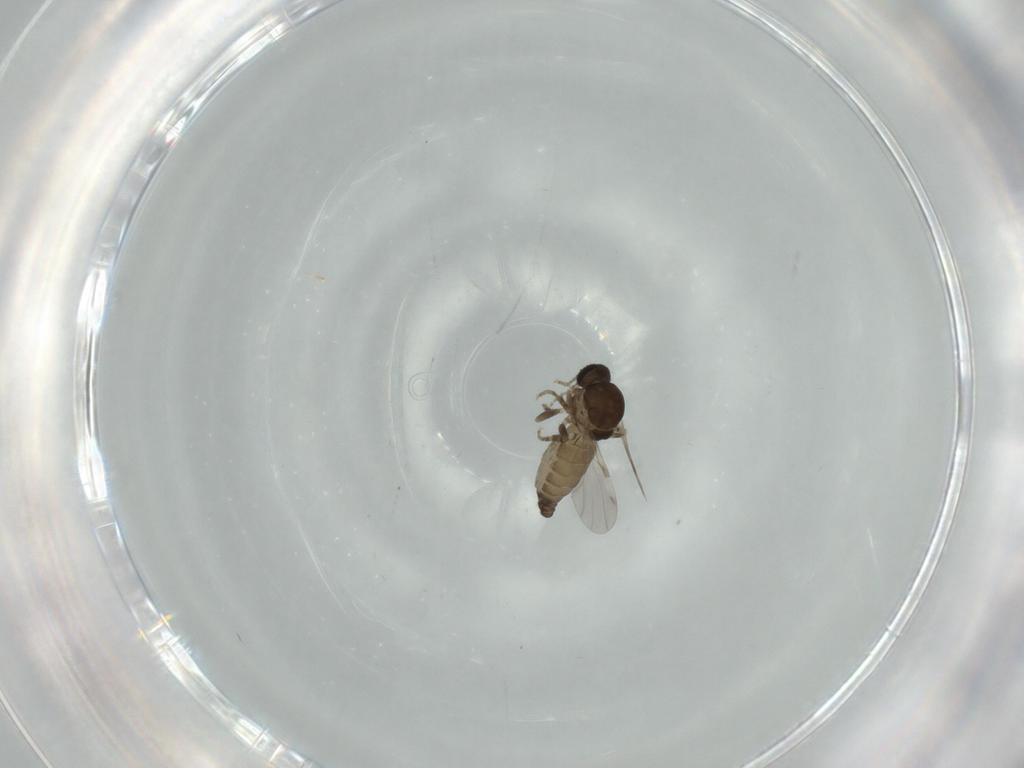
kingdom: Animalia
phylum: Arthropoda
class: Insecta
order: Diptera
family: Ceratopogonidae
